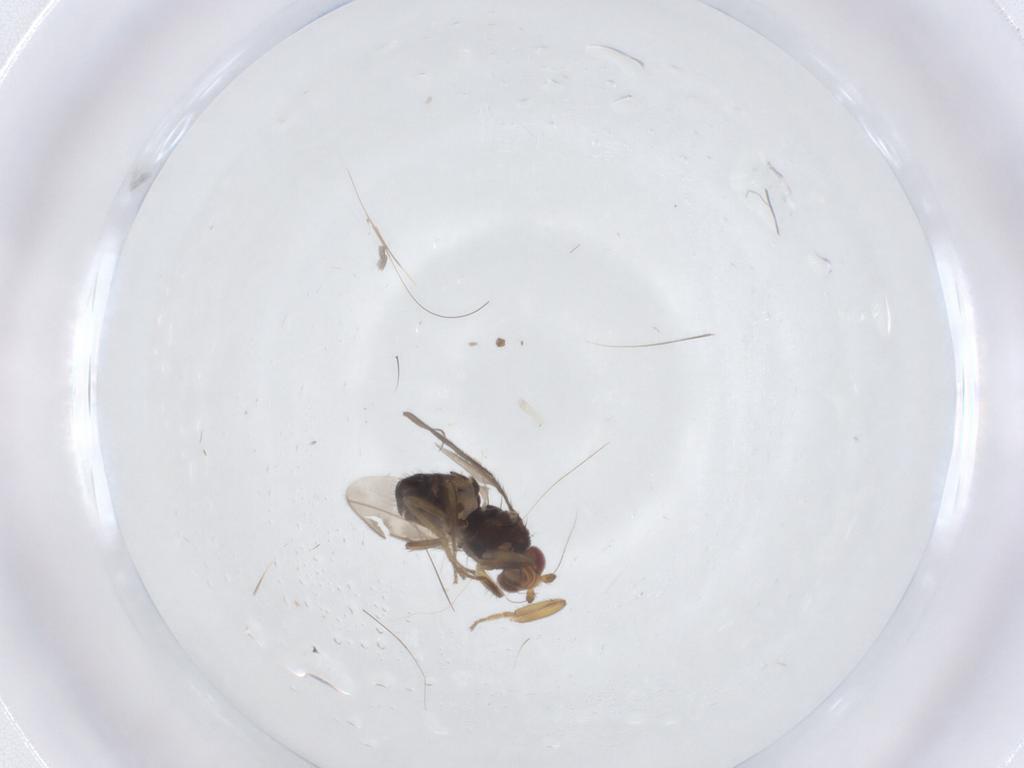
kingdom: Animalia
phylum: Arthropoda
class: Insecta
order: Diptera
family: Sphaeroceridae
